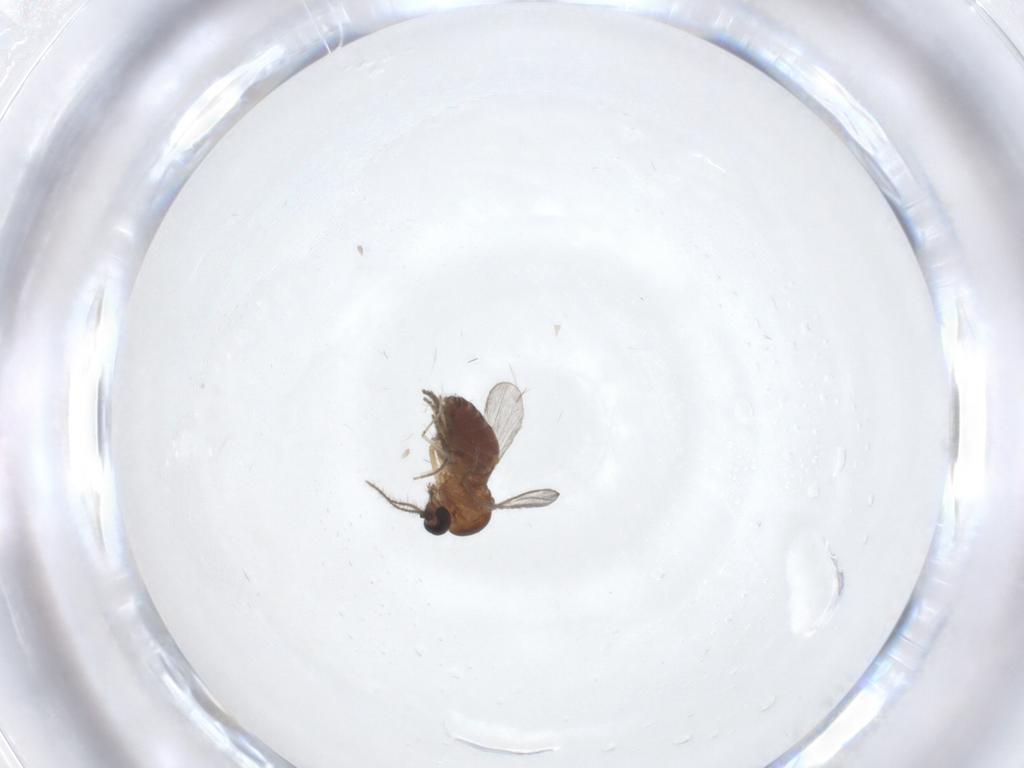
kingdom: Animalia
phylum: Arthropoda
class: Insecta
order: Diptera
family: Ceratopogonidae
